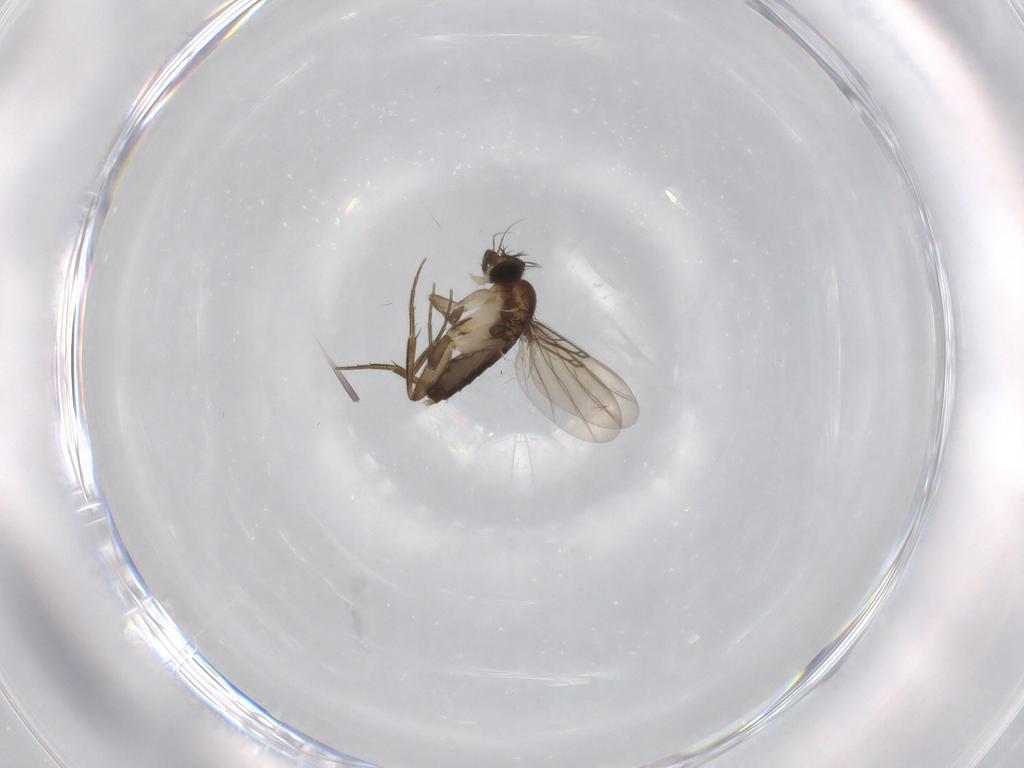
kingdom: Animalia
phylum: Arthropoda
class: Insecta
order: Diptera
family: Phoridae
